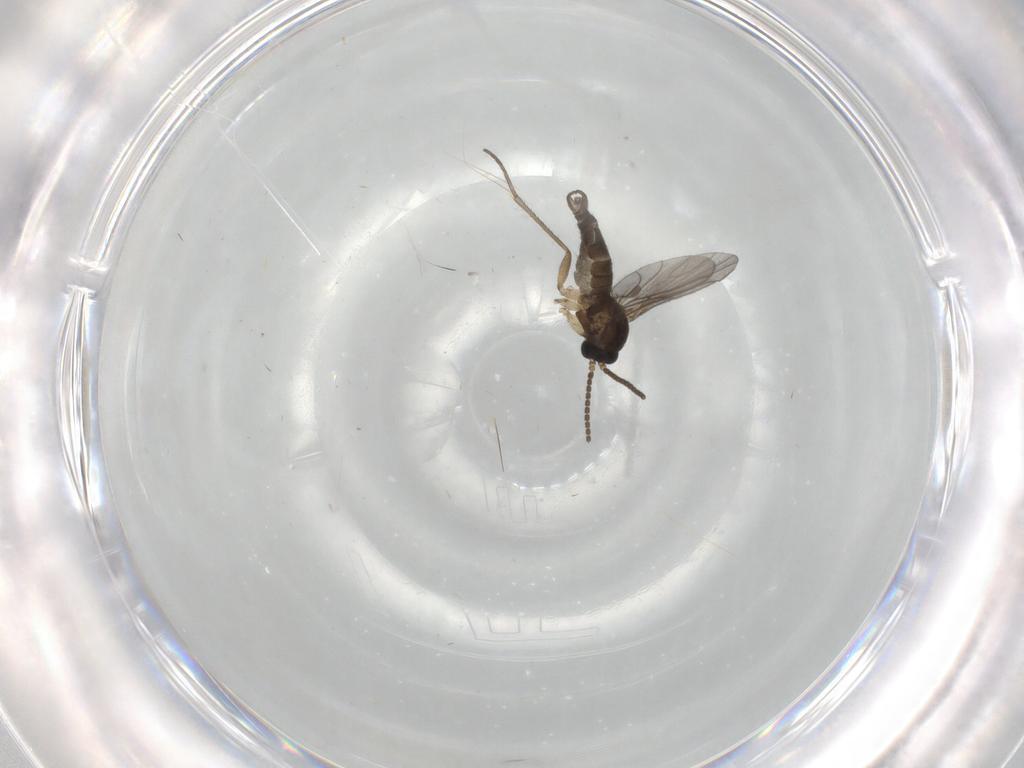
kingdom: Animalia
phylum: Arthropoda
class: Insecta
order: Diptera
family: Sciaridae
